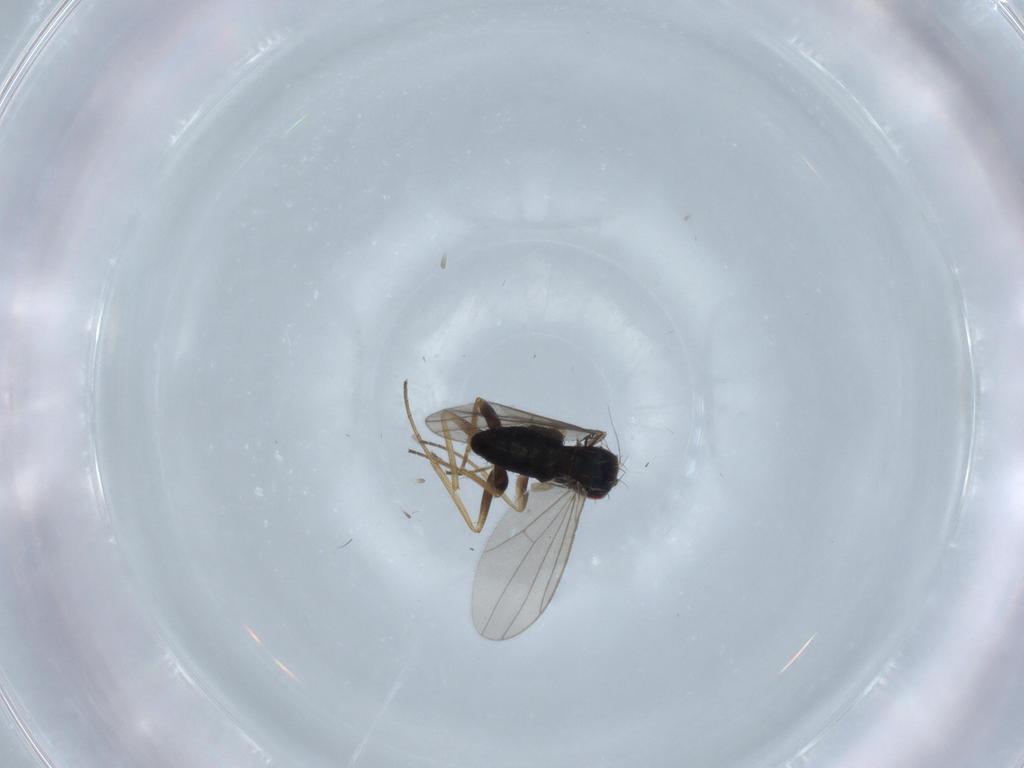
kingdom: Animalia
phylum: Arthropoda
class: Insecta
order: Diptera
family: Dolichopodidae
